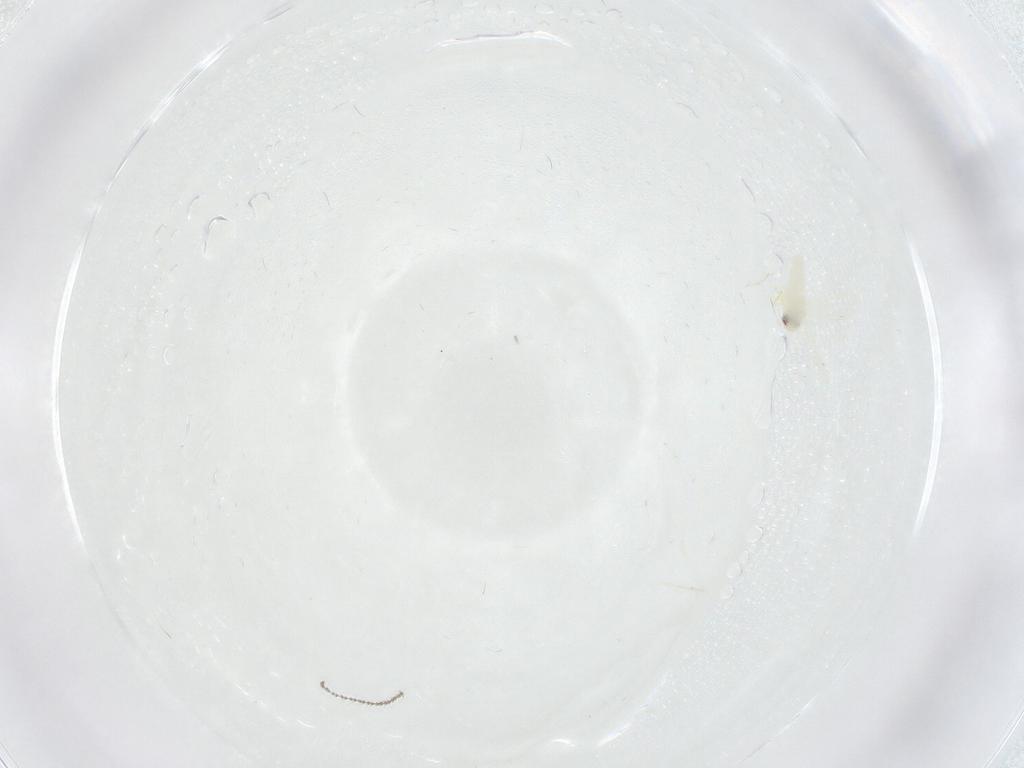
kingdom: Animalia
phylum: Arthropoda
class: Insecta
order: Diptera
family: Cecidomyiidae
